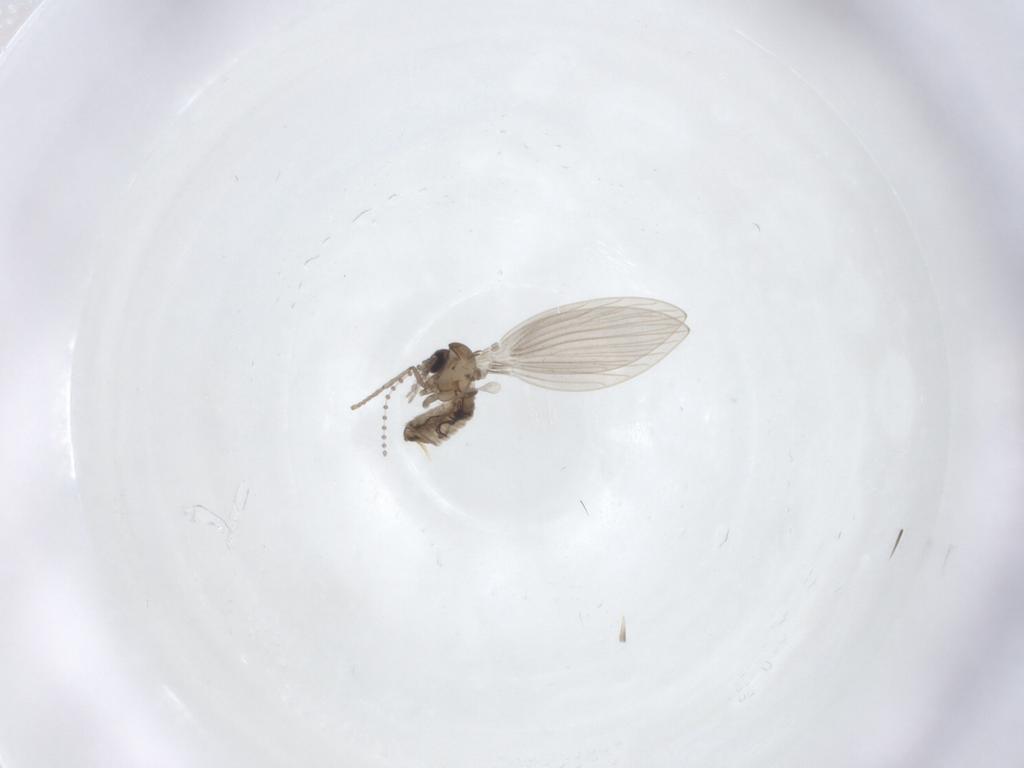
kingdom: Animalia
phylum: Arthropoda
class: Insecta
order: Diptera
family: Psychodidae
